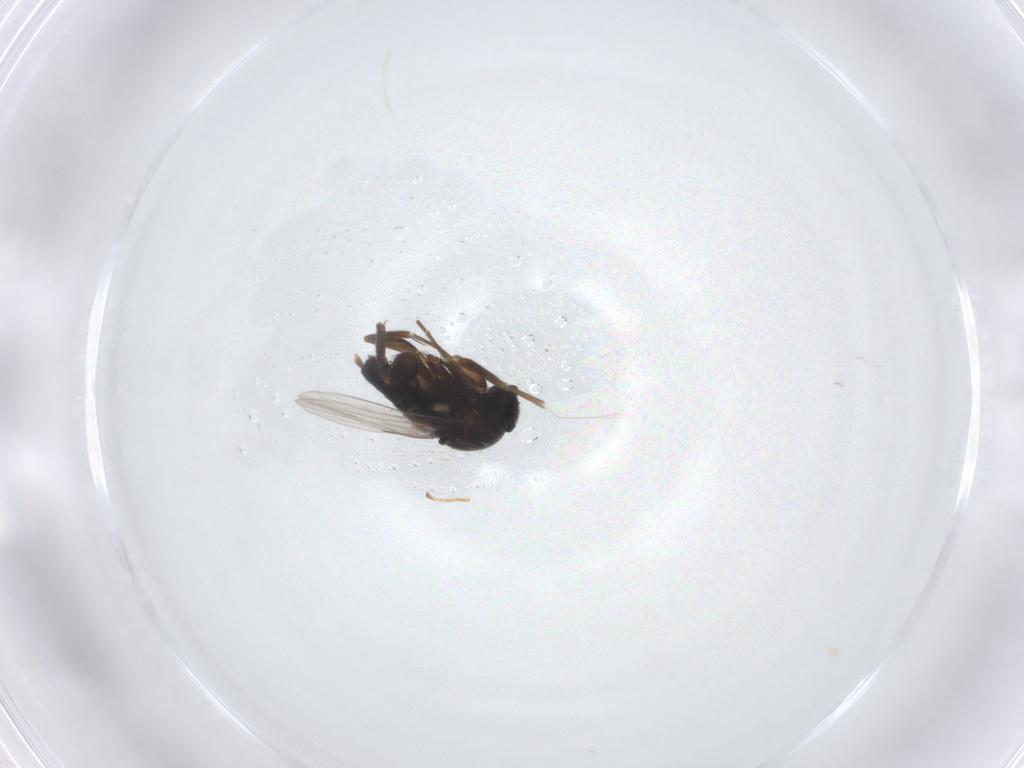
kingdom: Animalia
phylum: Arthropoda
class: Insecta
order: Diptera
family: Phoridae
